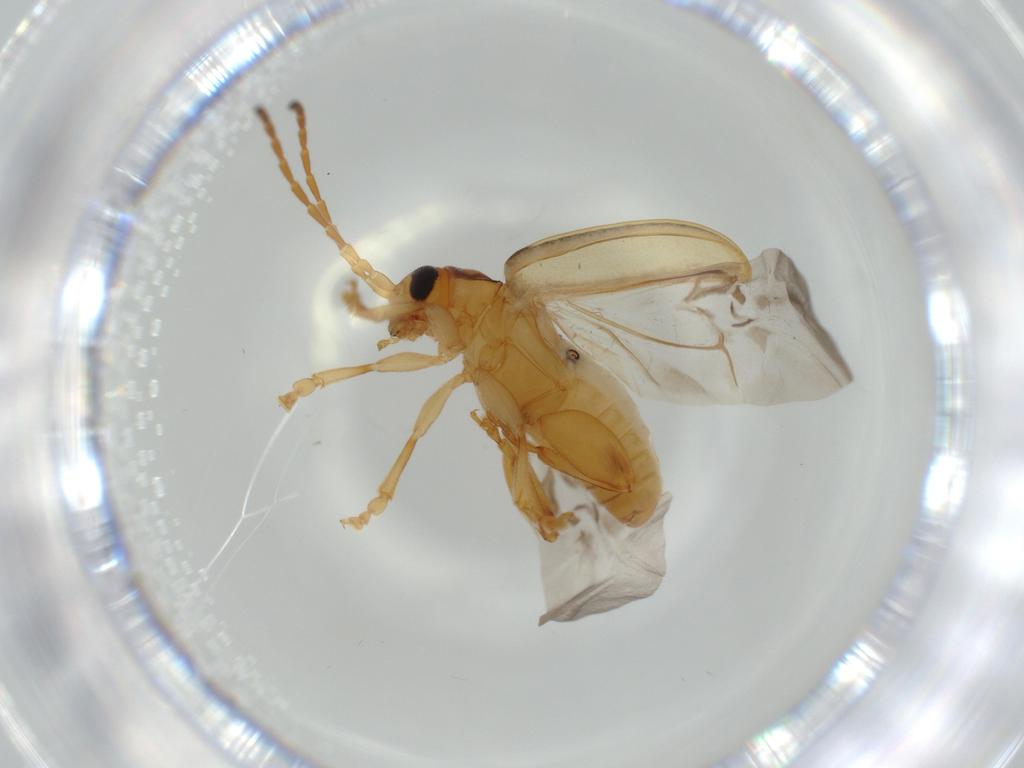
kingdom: Animalia
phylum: Arthropoda
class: Insecta
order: Coleoptera
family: Chrysomelidae
